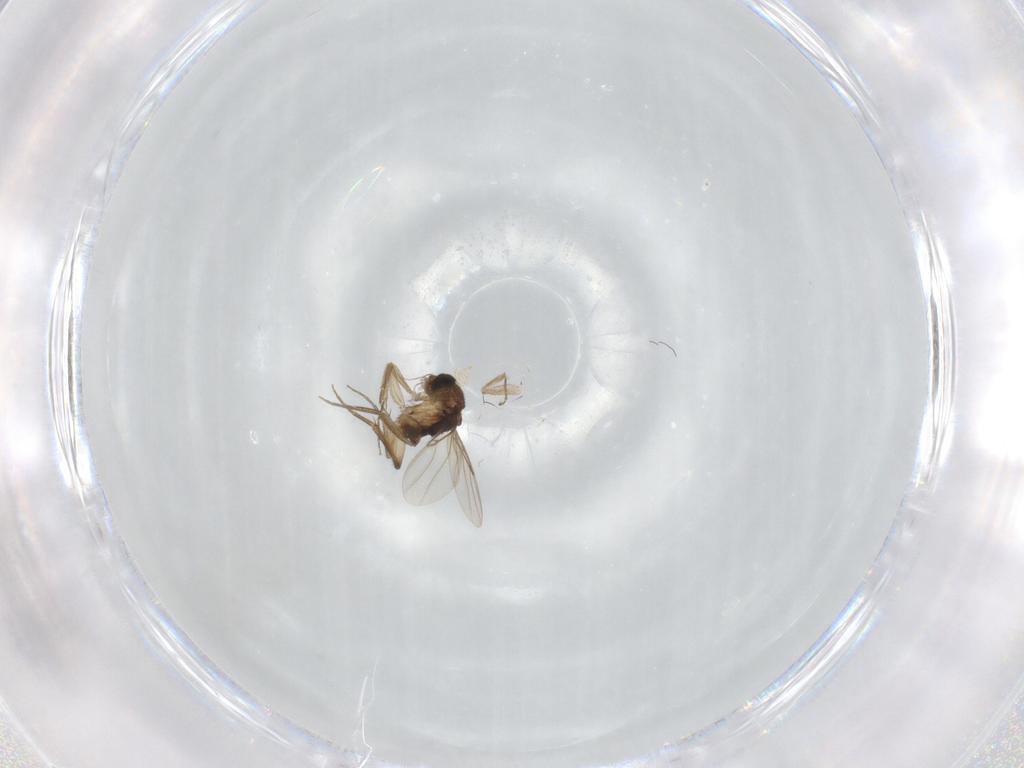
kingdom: Animalia
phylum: Arthropoda
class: Insecta
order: Diptera
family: Phoridae
